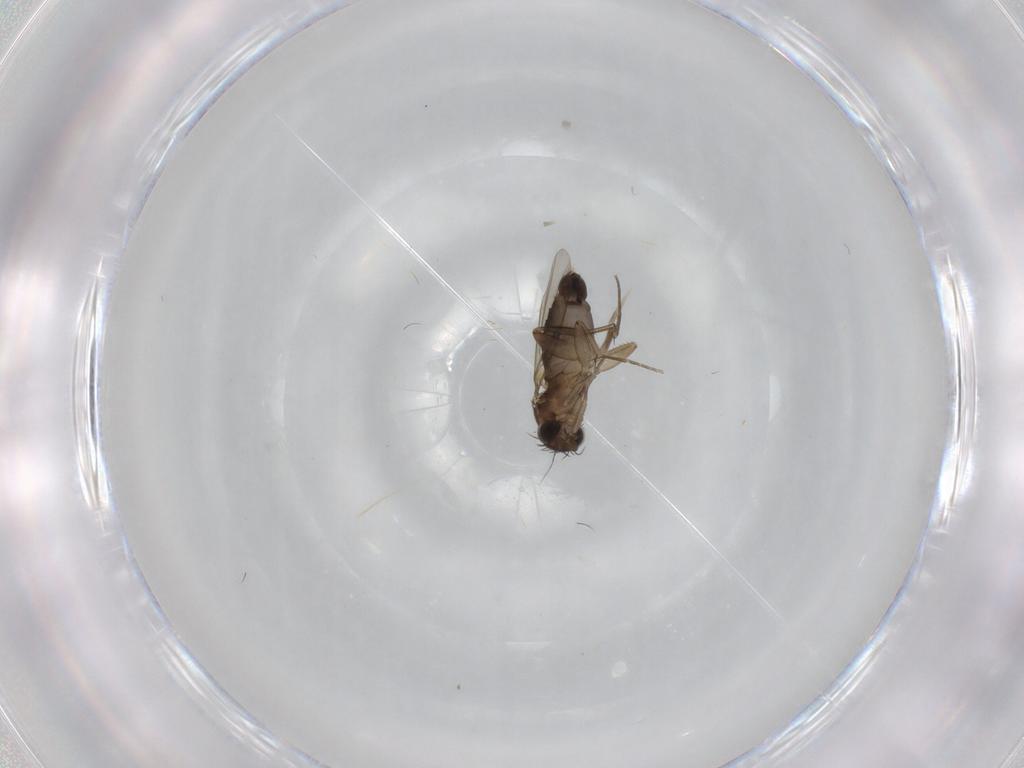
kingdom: Animalia
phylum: Arthropoda
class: Insecta
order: Diptera
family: Phoridae
